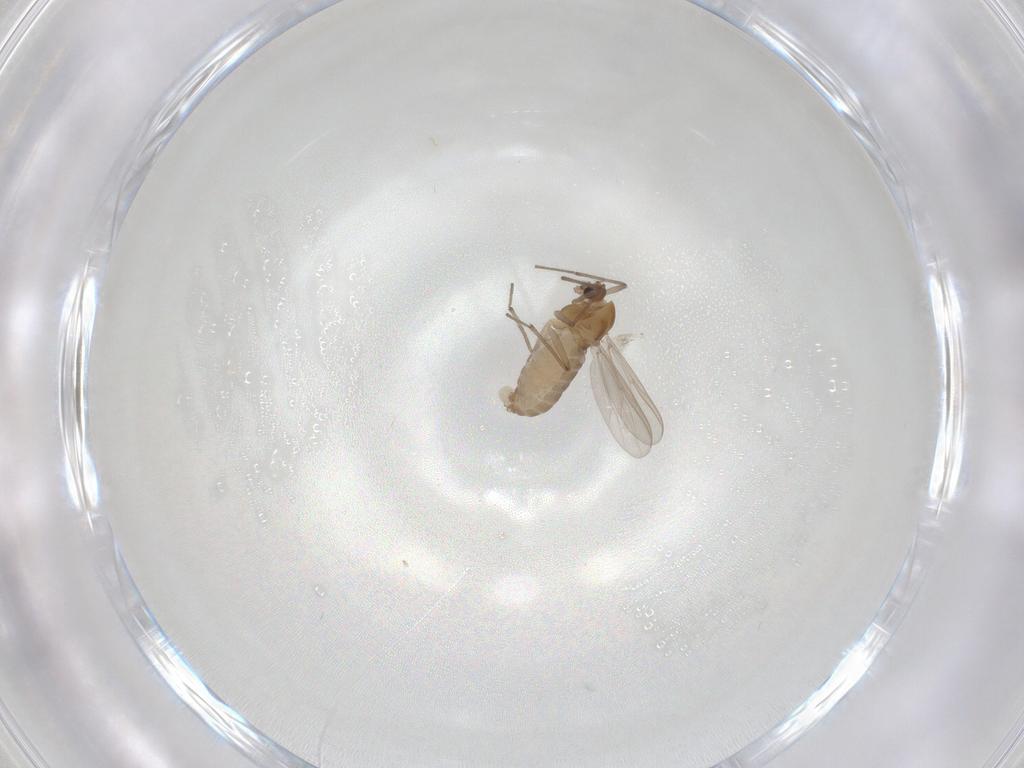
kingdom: Animalia
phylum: Arthropoda
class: Insecta
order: Diptera
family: Chironomidae
